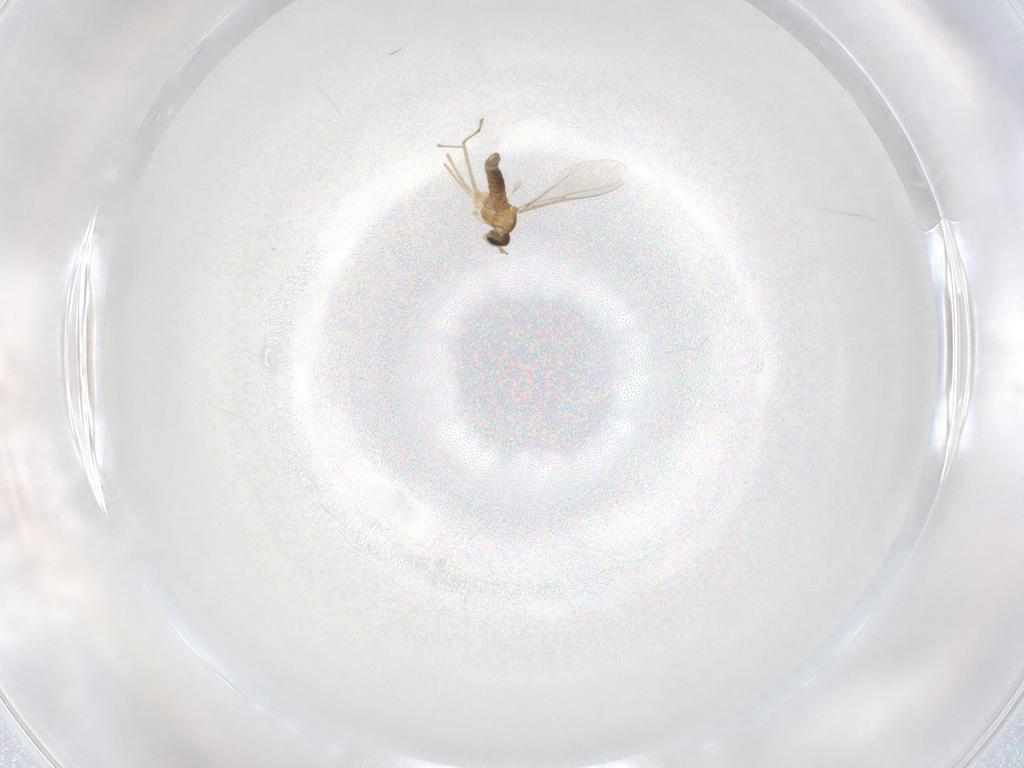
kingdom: Animalia
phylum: Arthropoda
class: Insecta
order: Diptera
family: Cecidomyiidae
